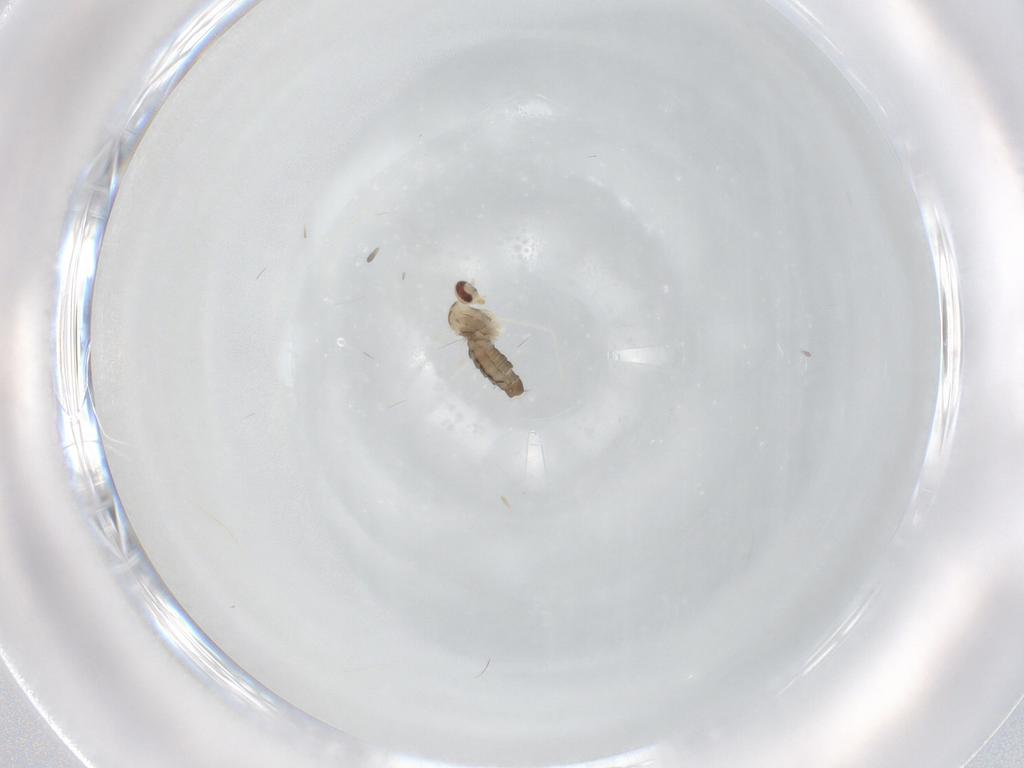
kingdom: Animalia
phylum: Arthropoda
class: Insecta
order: Diptera
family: Cecidomyiidae
